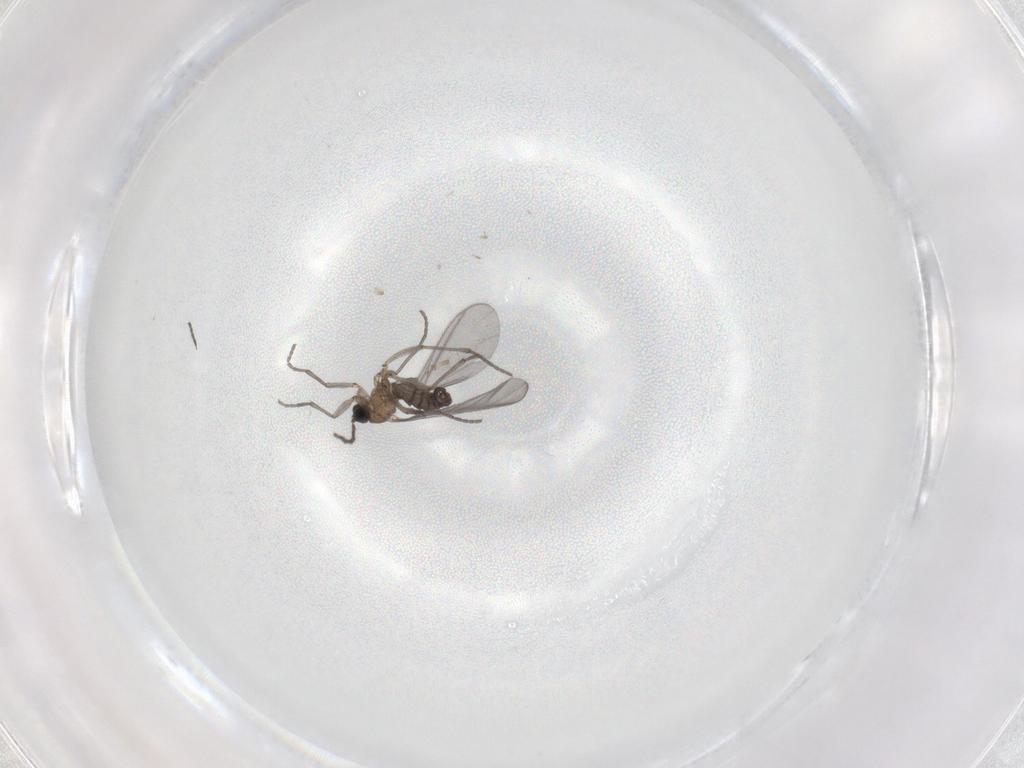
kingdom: Animalia
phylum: Arthropoda
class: Insecta
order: Diptera
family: Sciaridae
